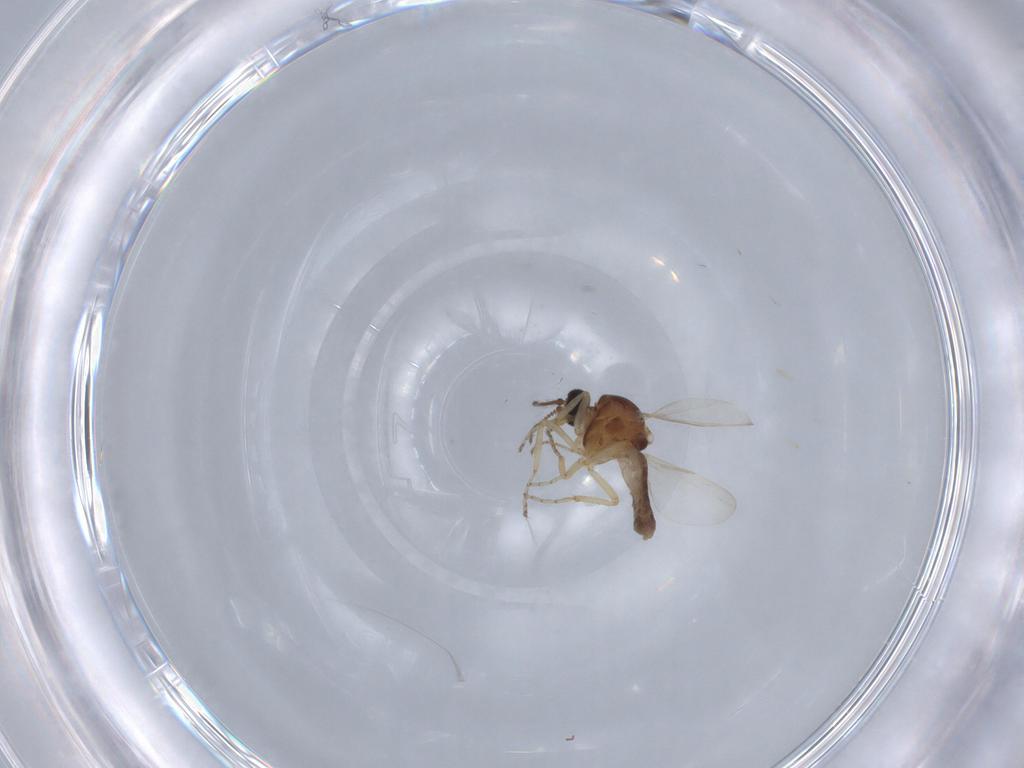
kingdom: Animalia
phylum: Arthropoda
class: Insecta
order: Diptera
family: Ceratopogonidae
